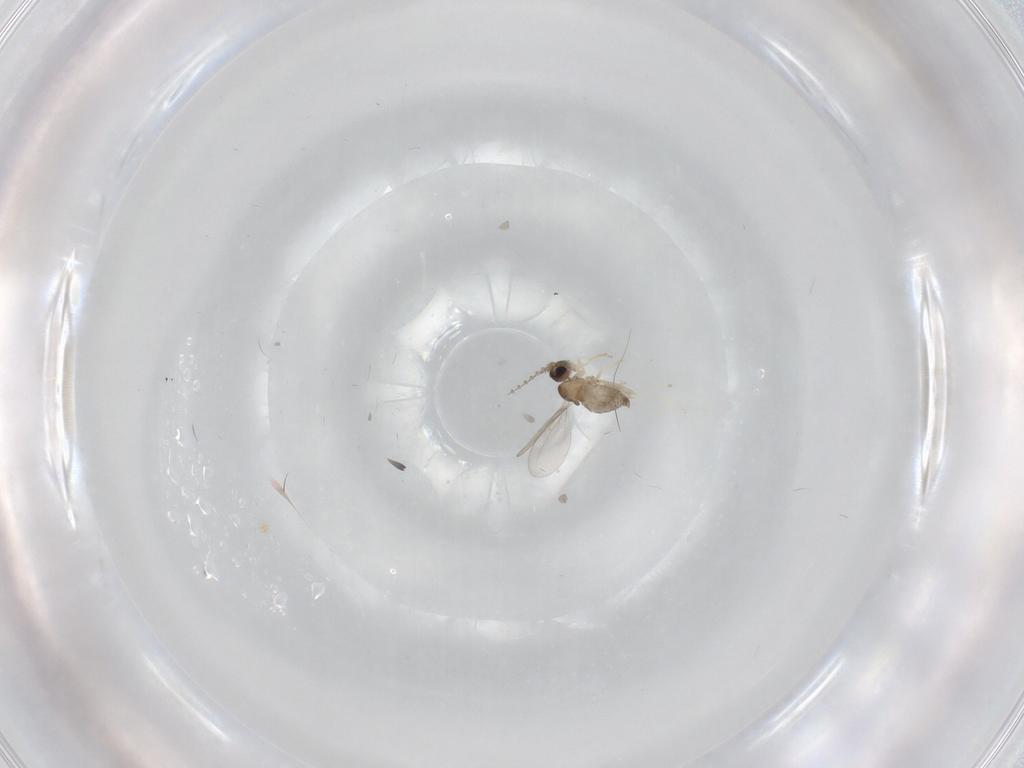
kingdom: Animalia
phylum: Arthropoda
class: Insecta
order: Diptera
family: Cecidomyiidae
